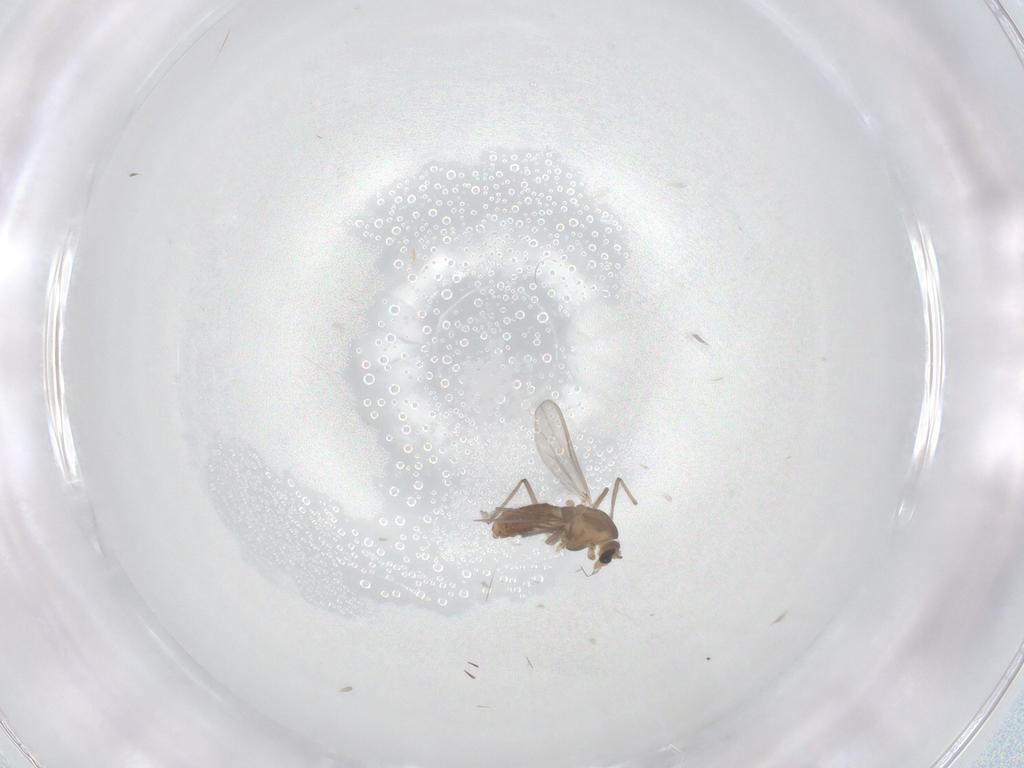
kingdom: Animalia
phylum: Arthropoda
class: Insecta
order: Diptera
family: Psychodidae
